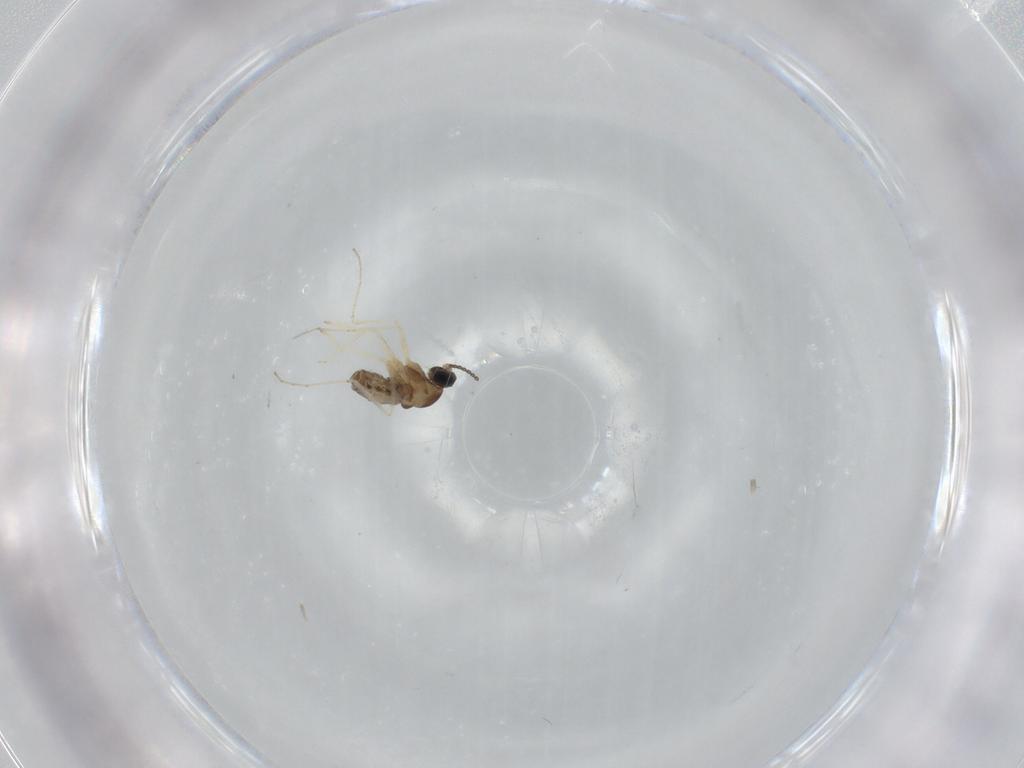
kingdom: Animalia
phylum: Arthropoda
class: Insecta
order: Diptera
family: Cecidomyiidae
